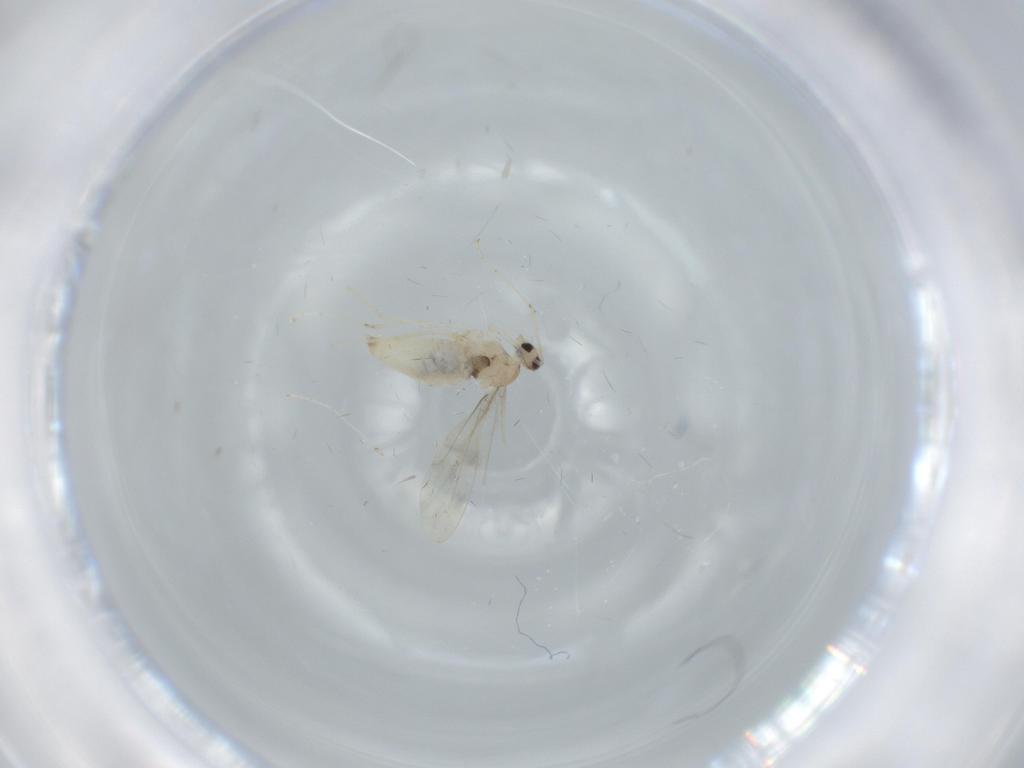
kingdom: Animalia
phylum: Arthropoda
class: Insecta
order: Diptera
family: Cecidomyiidae
